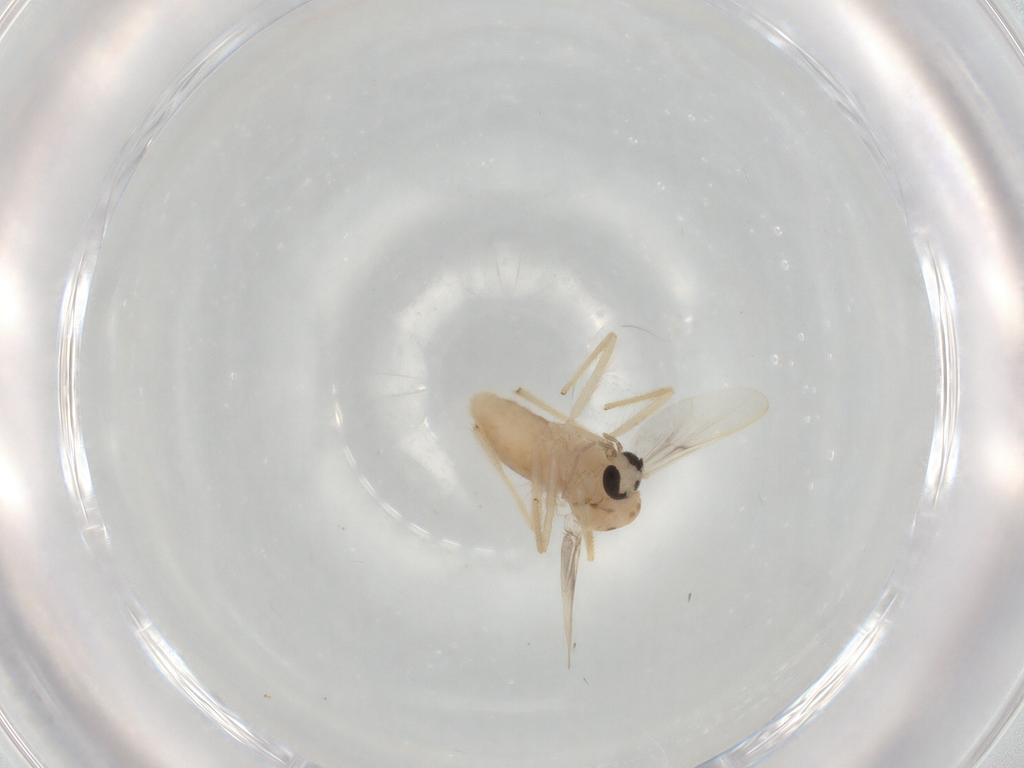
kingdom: Animalia
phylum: Arthropoda
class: Insecta
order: Diptera
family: Chironomidae
